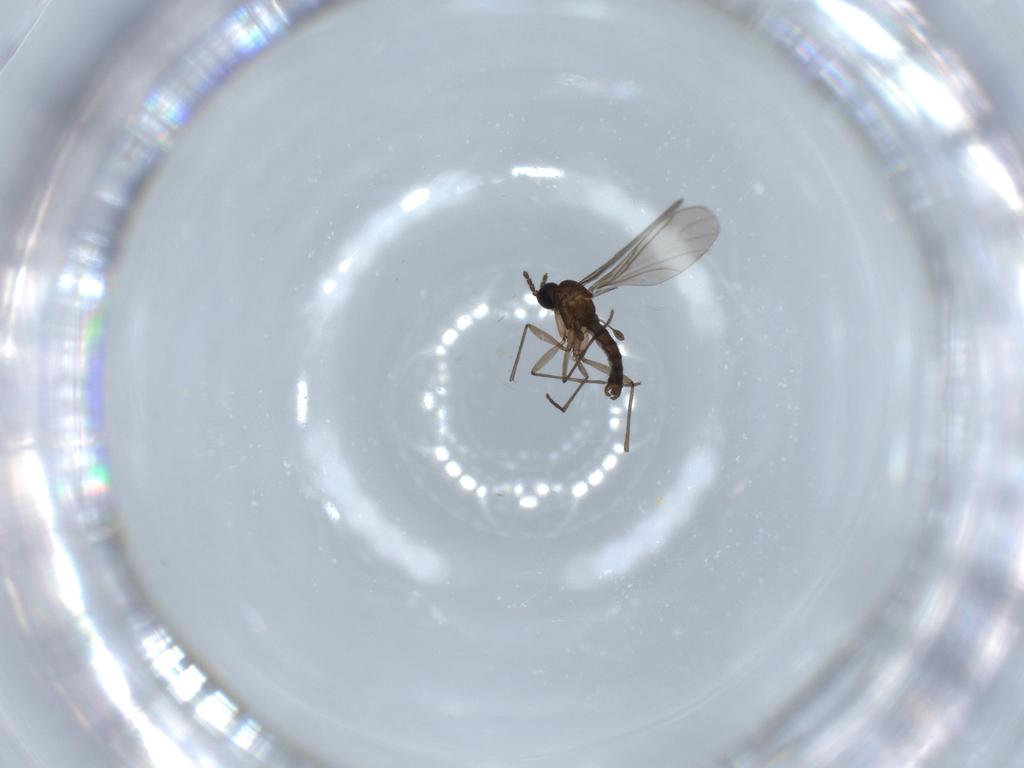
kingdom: Animalia
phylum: Arthropoda
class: Insecta
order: Diptera
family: Sciaridae
